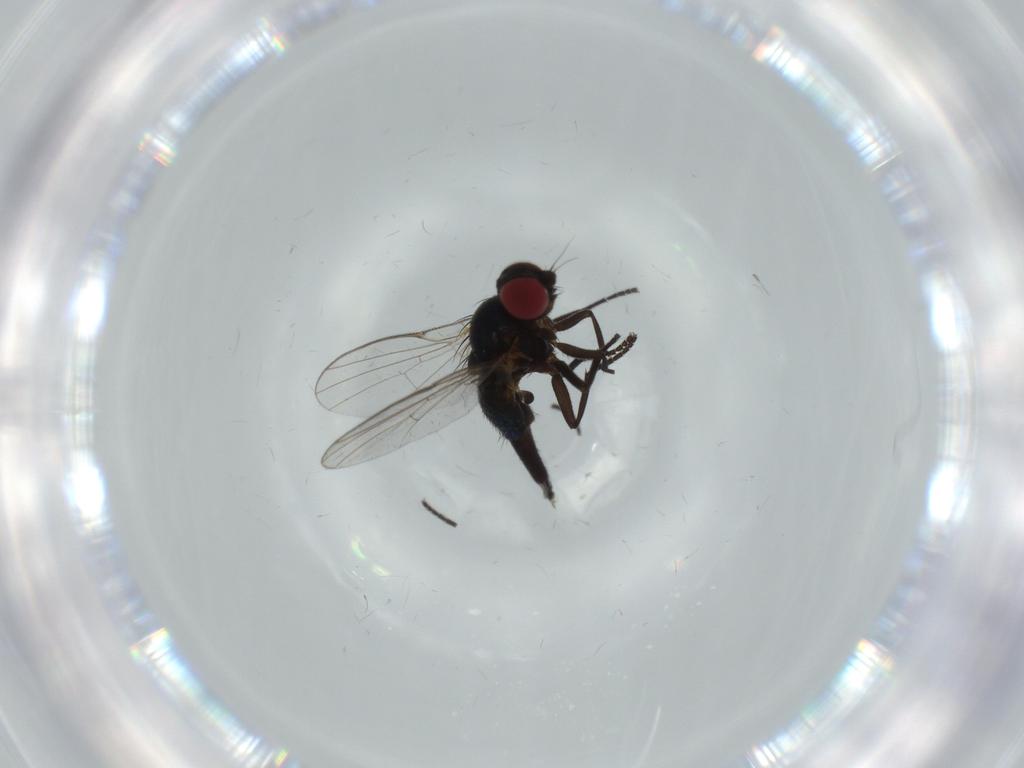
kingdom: Animalia
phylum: Arthropoda
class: Insecta
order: Diptera
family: Agromyzidae
